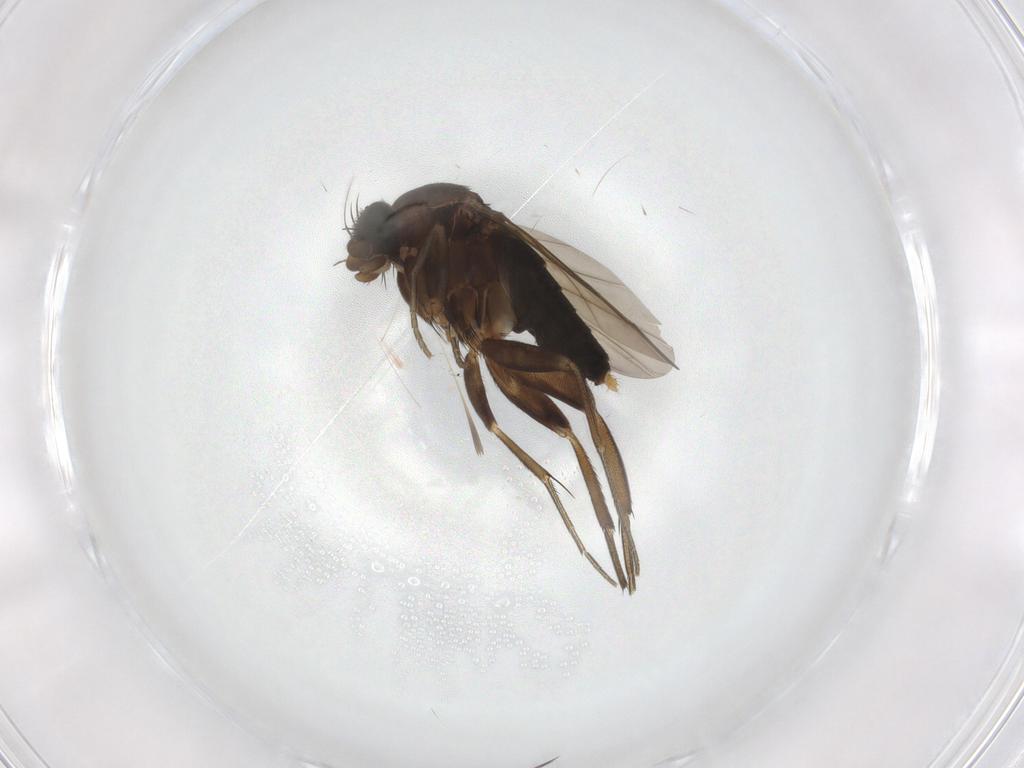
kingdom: Animalia
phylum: Arthropoda
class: Insecta
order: Diptera
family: Phoridae
